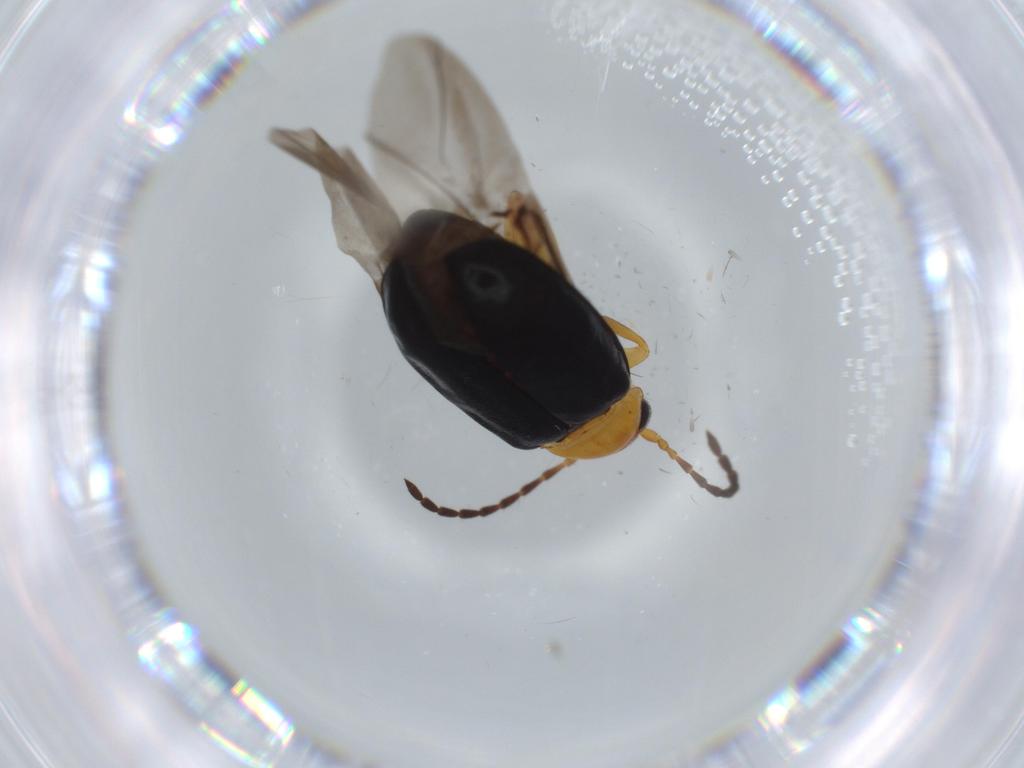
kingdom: Animalia
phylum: Arthropoda
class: Insecta
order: Coleoptera
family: Chrysomelidae
